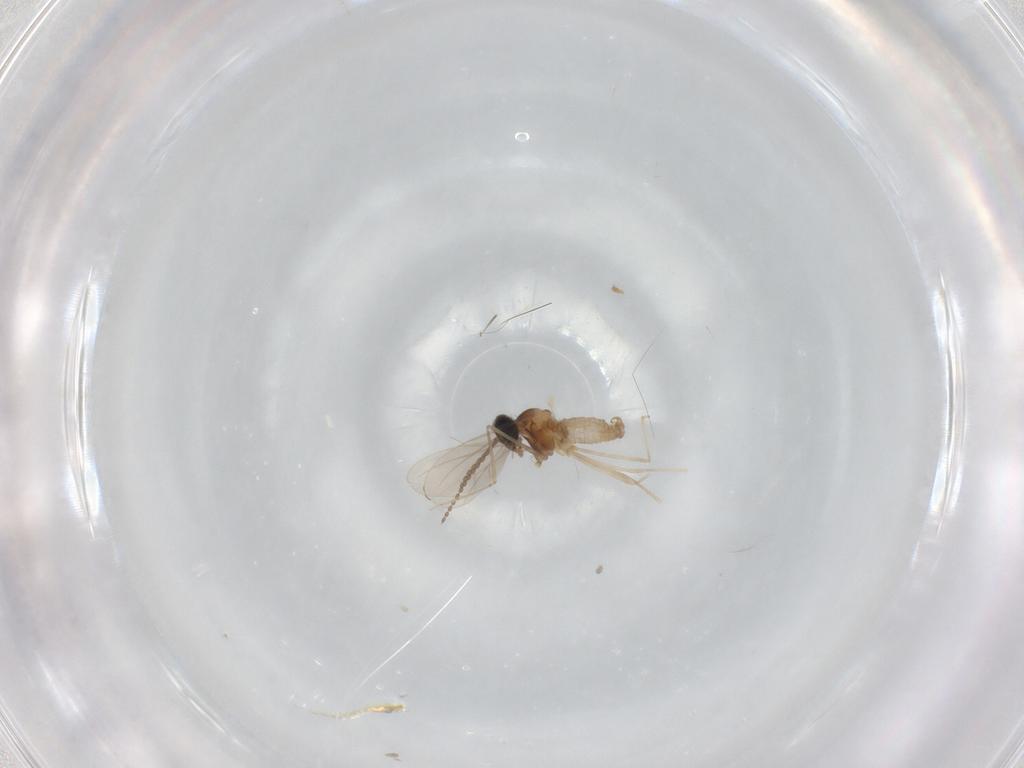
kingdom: Animalia
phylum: Arthropoda
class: Insecta
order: Diptera
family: Cecidomyiidae
